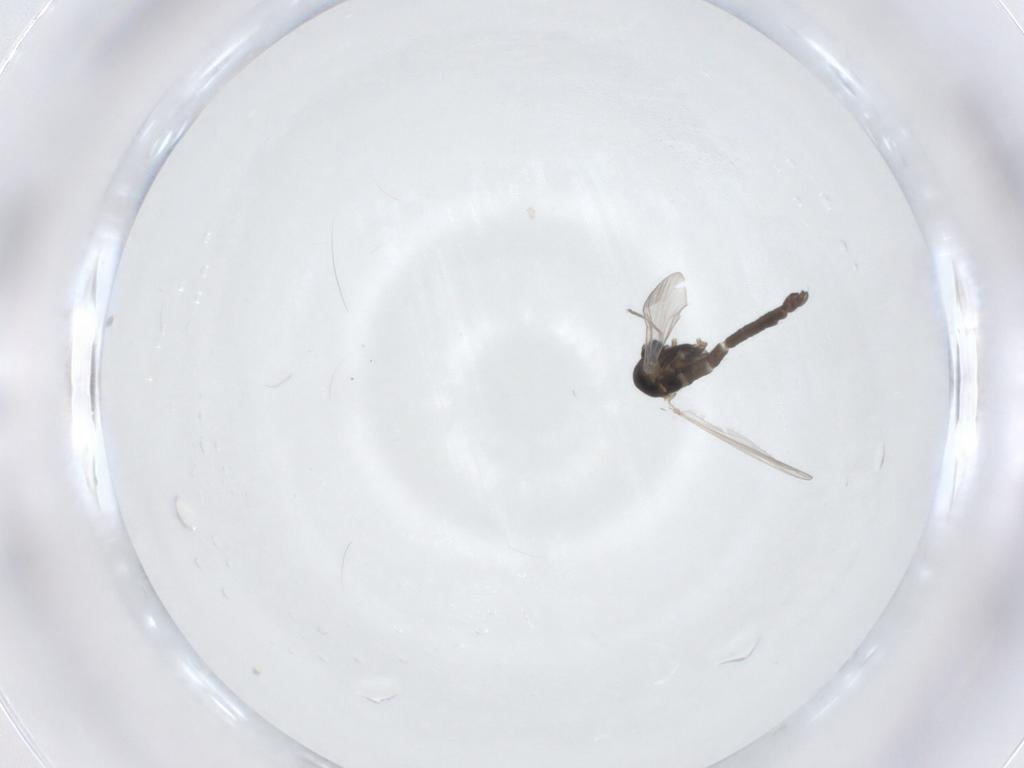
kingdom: Animalia
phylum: Arthropoda
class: Insecta
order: Diptera
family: Chironomidae
